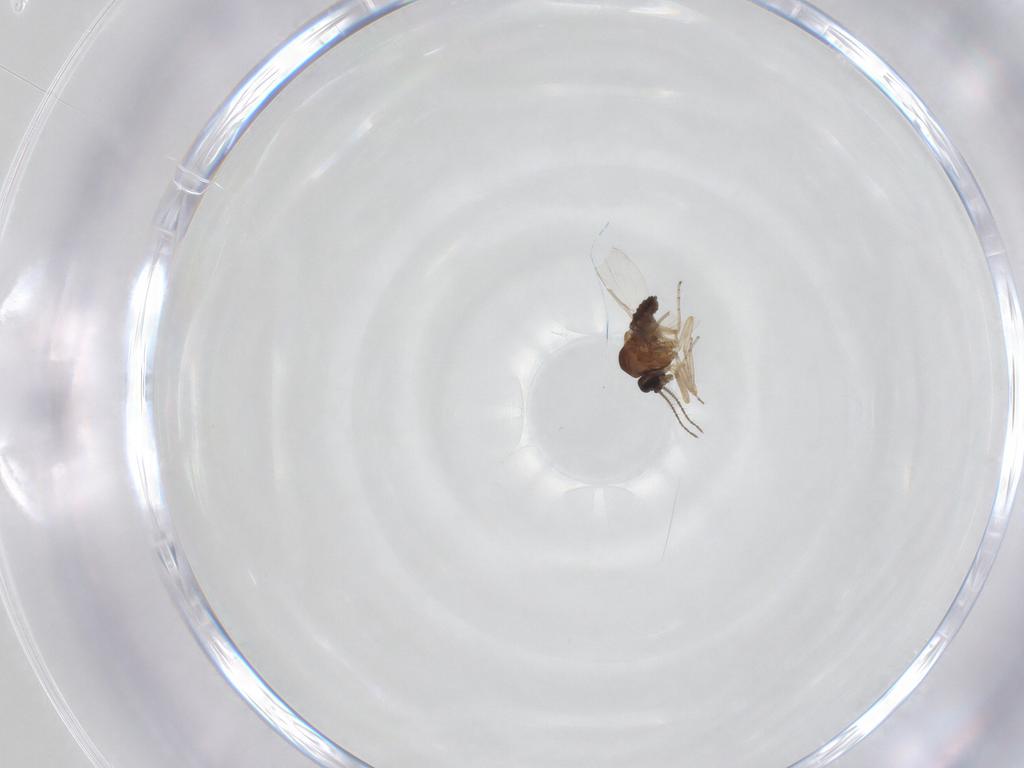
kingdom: Animalia
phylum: Arthropoda
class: Insecta
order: Diptera
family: Ceratopogonidae
